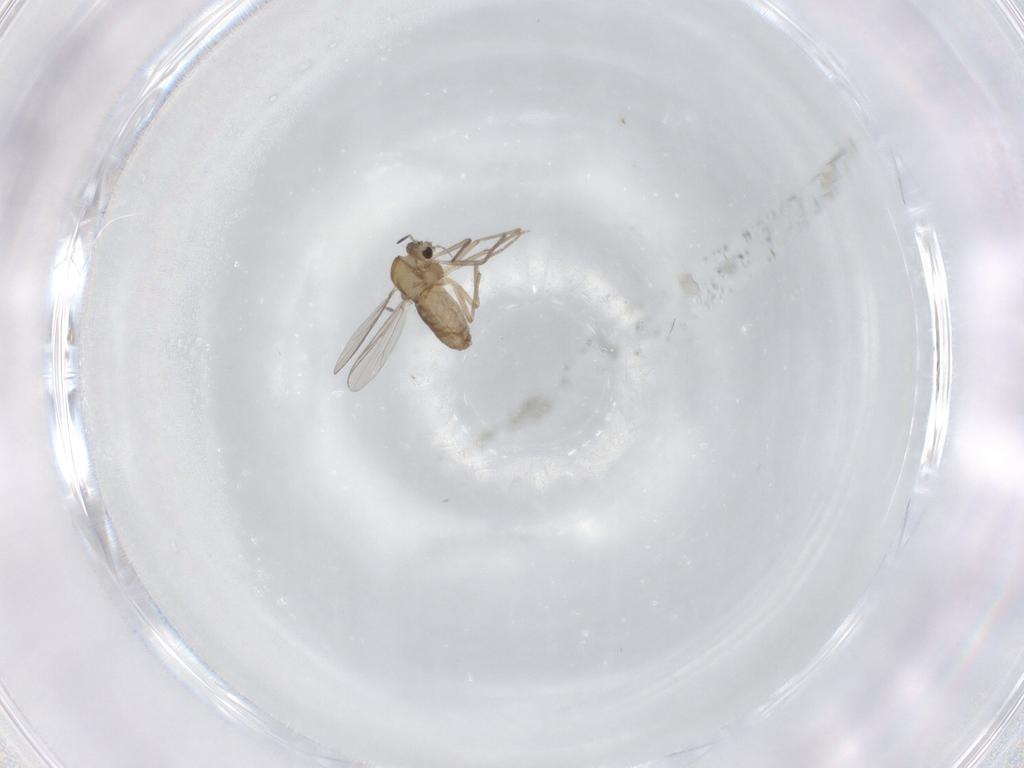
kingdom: Animalia
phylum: Arthropoda
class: Insecta
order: Diptera
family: Chironomidae
